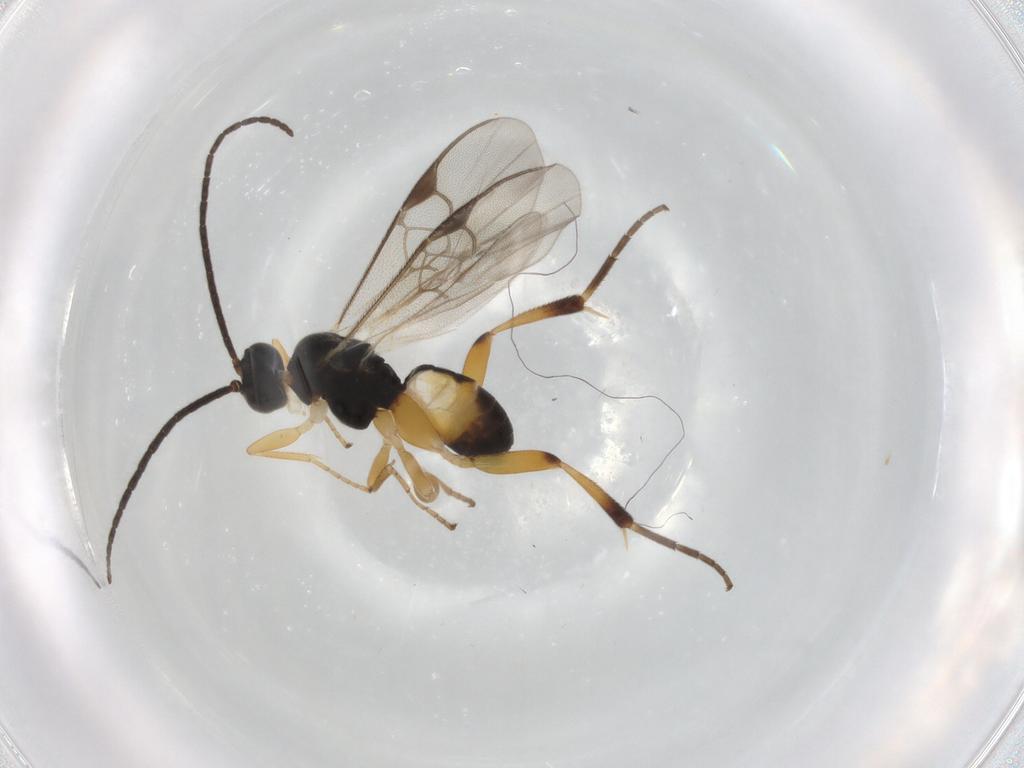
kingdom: Animalia
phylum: Arthropoda
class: Insecta
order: Hymenoptera
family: Braconidae
